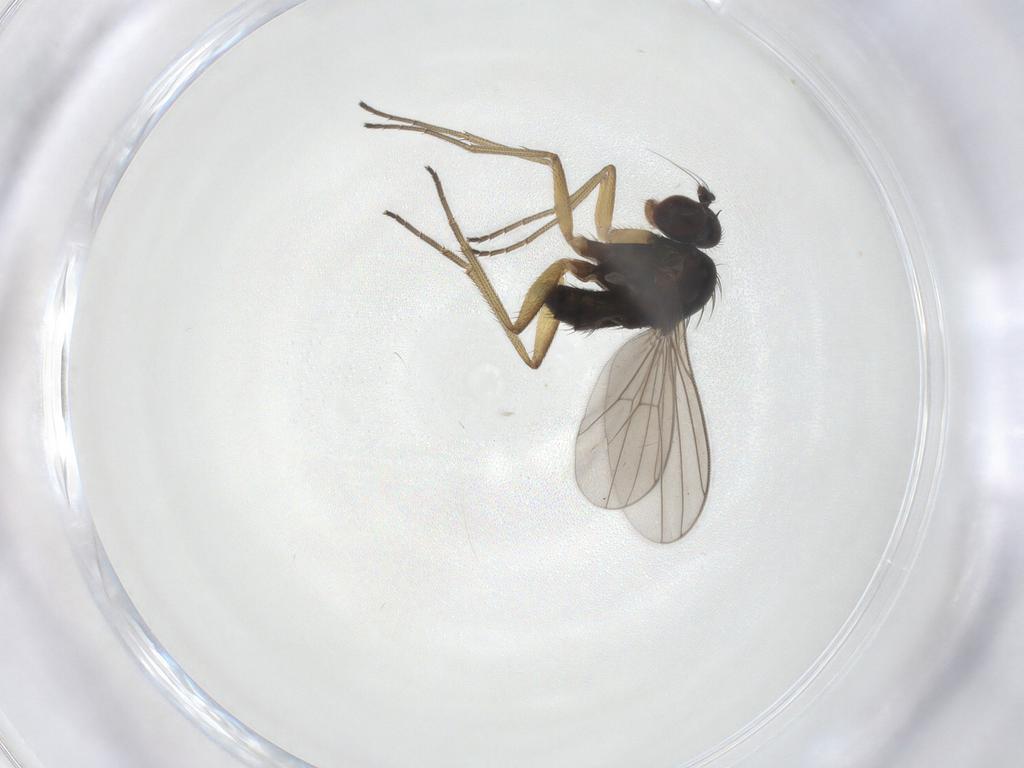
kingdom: Animalia
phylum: Arthropoda
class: Insecta
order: Diptera
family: Dolichopodidae
